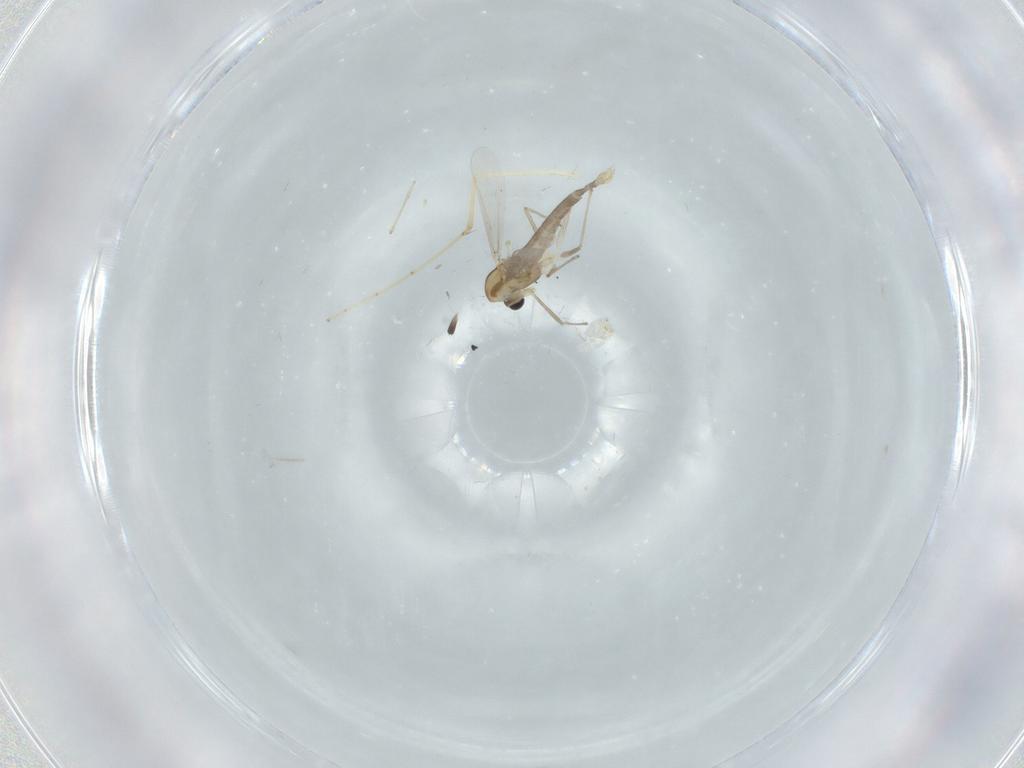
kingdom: Animalia
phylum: Arthropoda
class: Insecta
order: Diptera
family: Chironomidae
